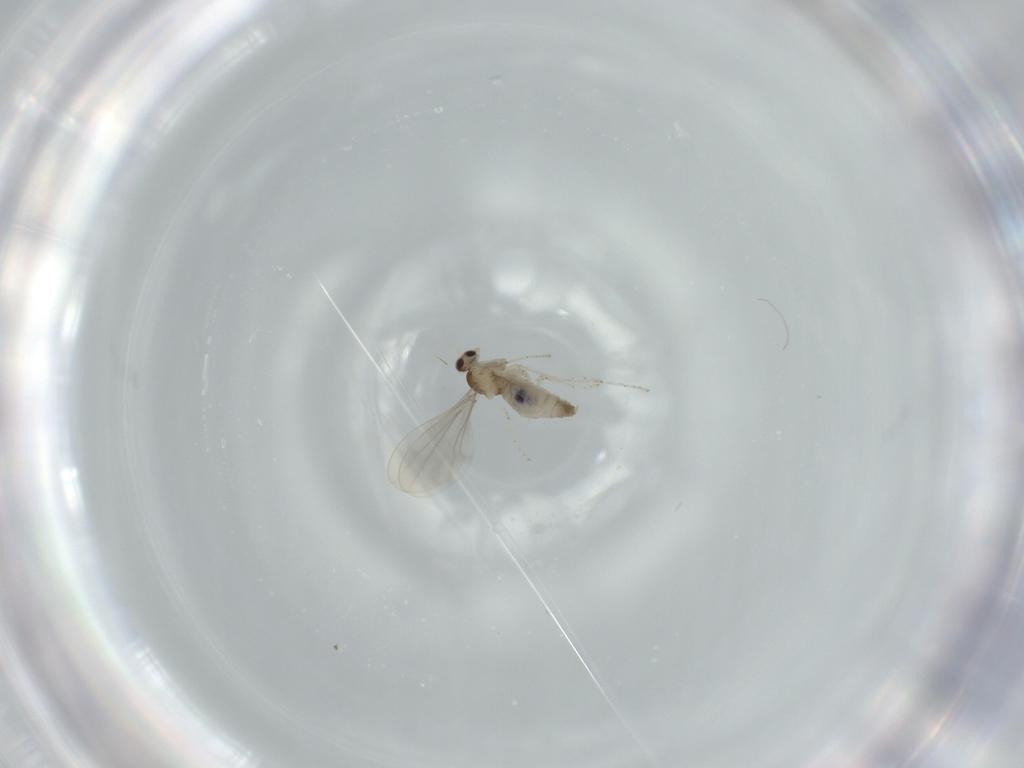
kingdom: Animalia
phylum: Arthropoda
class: Insecta
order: Diptera
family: Cecidomyiidae
